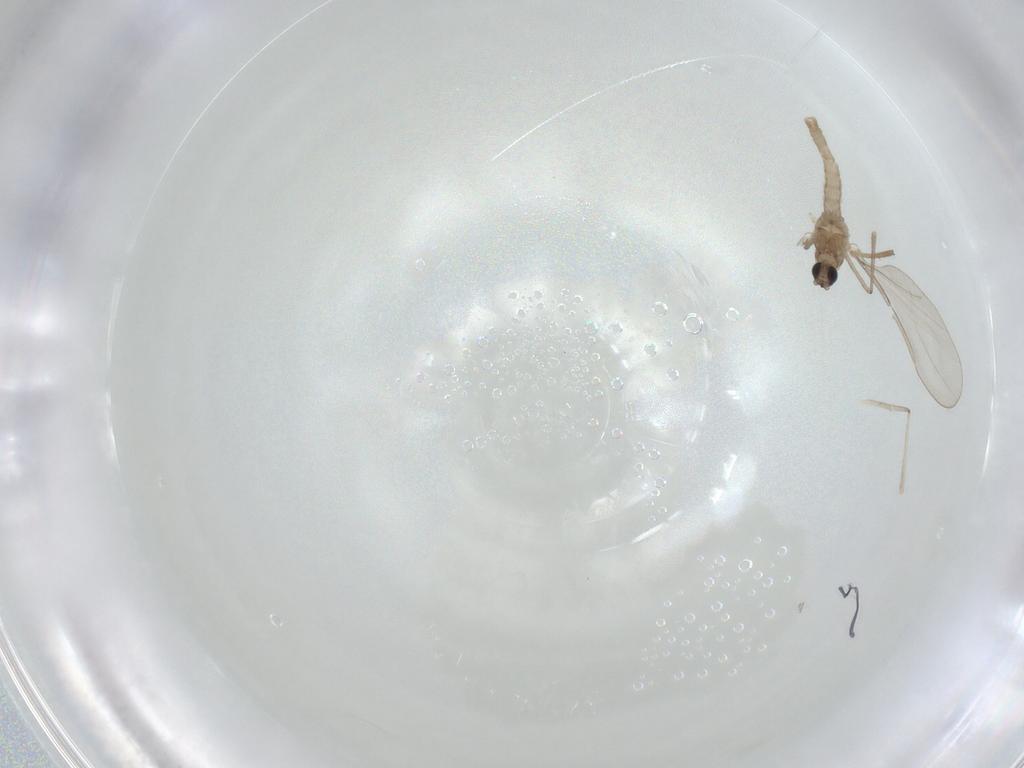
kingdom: Animalia
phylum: Arthropoda
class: Insecta
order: Diptera
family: Cecidomyiidae
